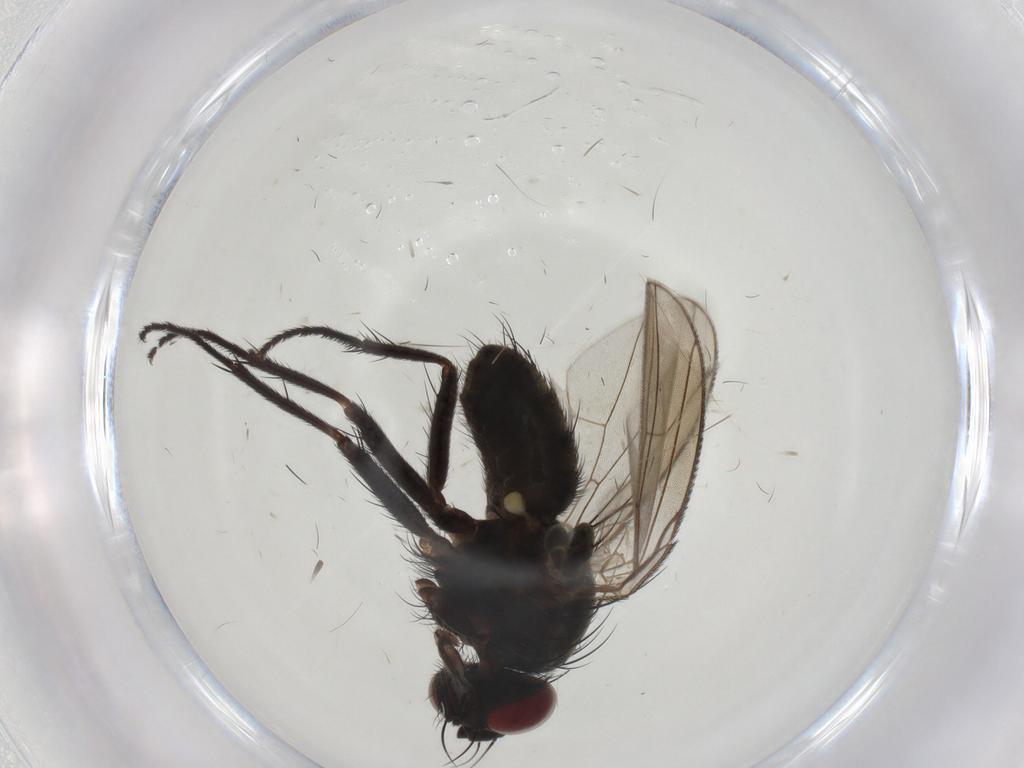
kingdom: Animalia
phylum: Arthropoda
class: Insecta
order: Diptera
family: Muscidae
